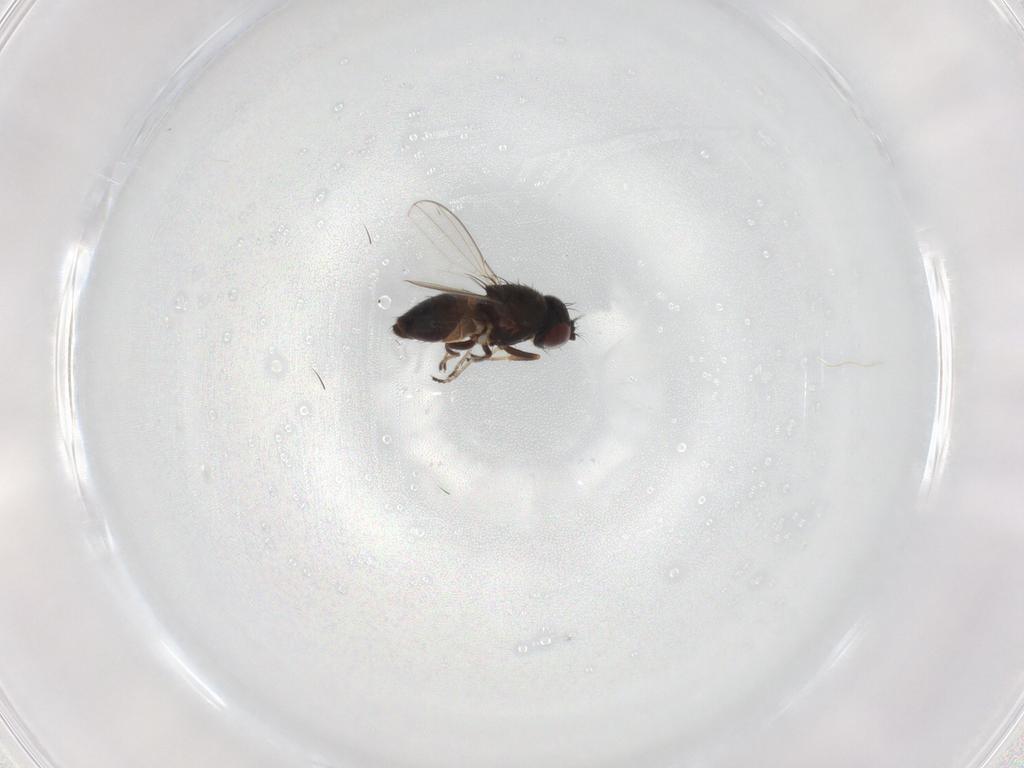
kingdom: Animalia
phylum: Arthropoda
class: Insecta
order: Diptera
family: Ephydridae
